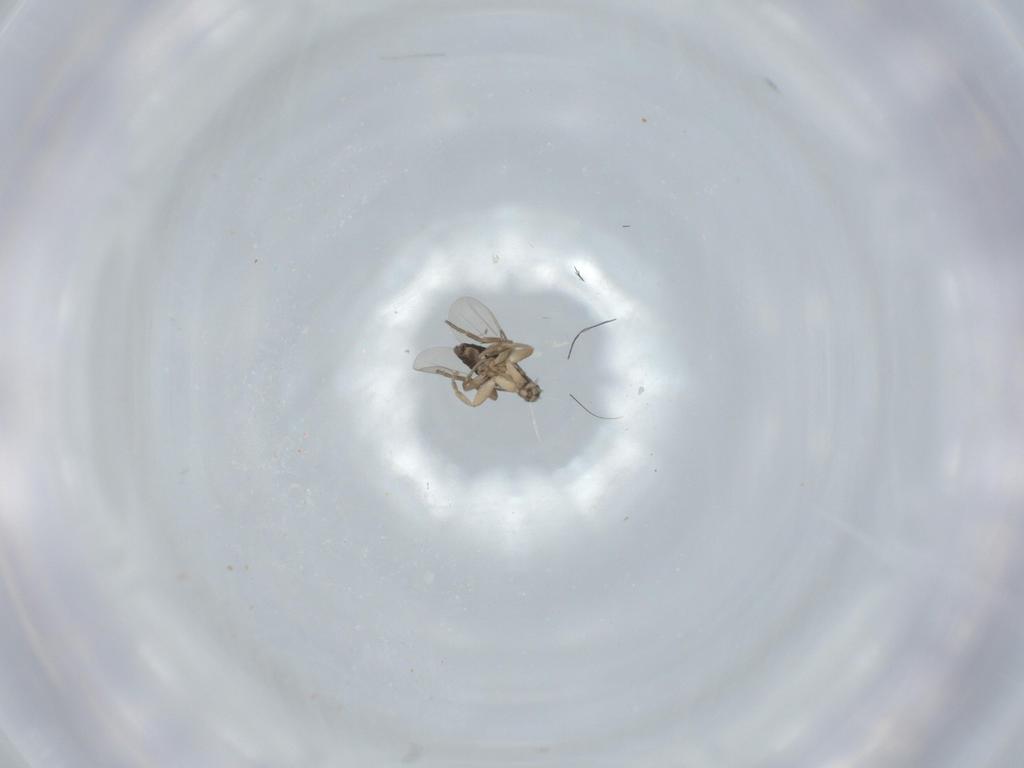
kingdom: Animalia
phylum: Arthropoda
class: Insecta
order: Diptera
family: Phoridae
